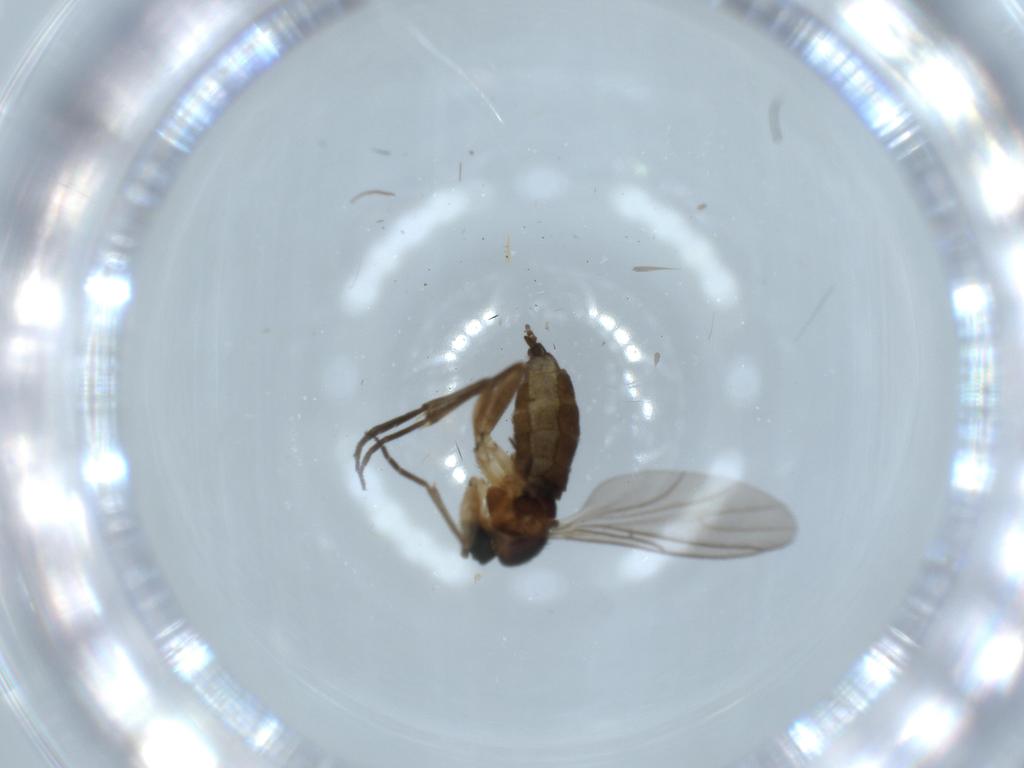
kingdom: Animalia
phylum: Arthropoda
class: Insecta
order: Diptera
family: Sciaridae
